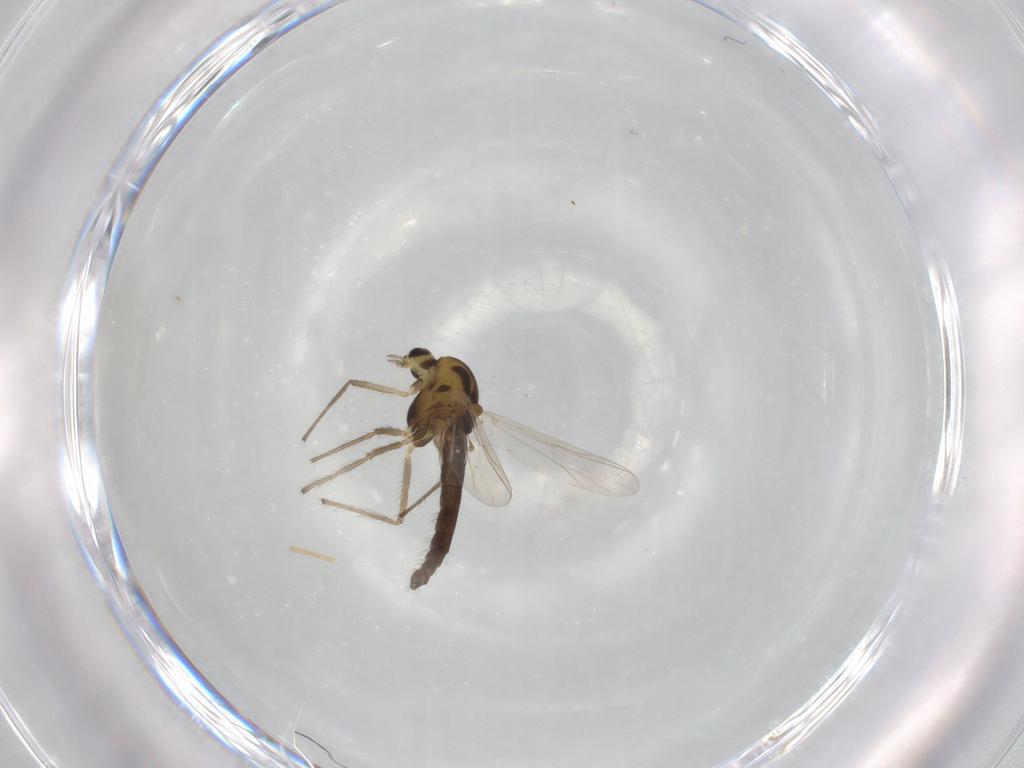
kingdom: Animalia
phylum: Arthropoda
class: Insecta
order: Diptera
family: Chironomidae
